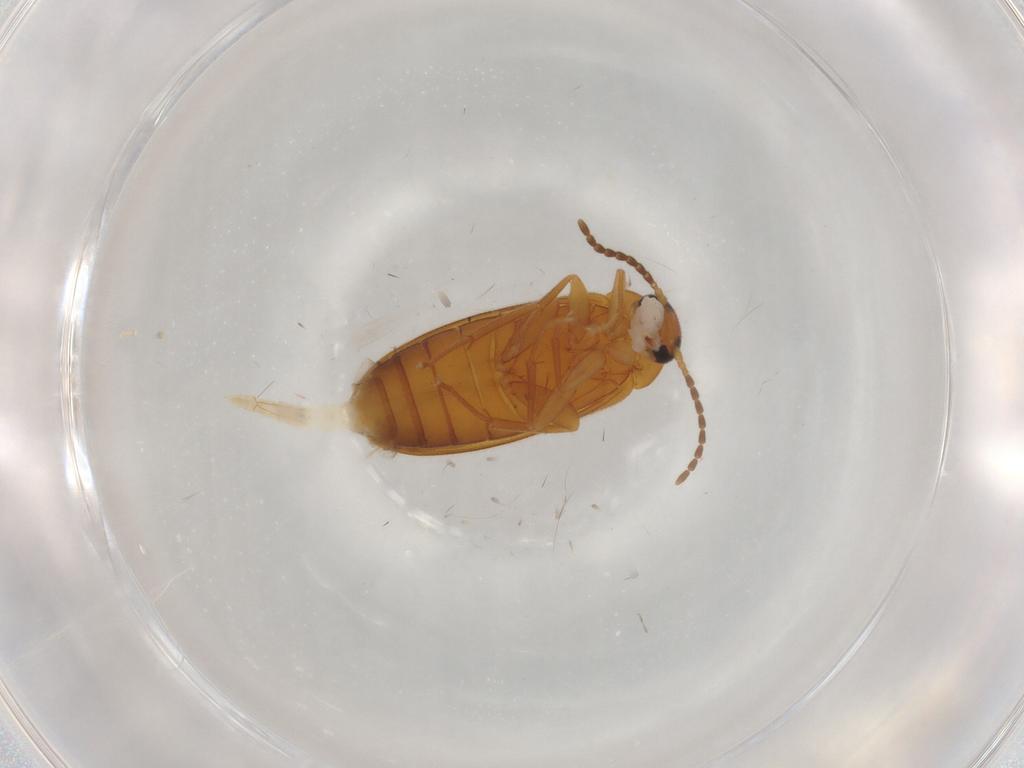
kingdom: Animalia
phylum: Arthropoda
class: Insecta
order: Coleoptera
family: Scraptiidae
